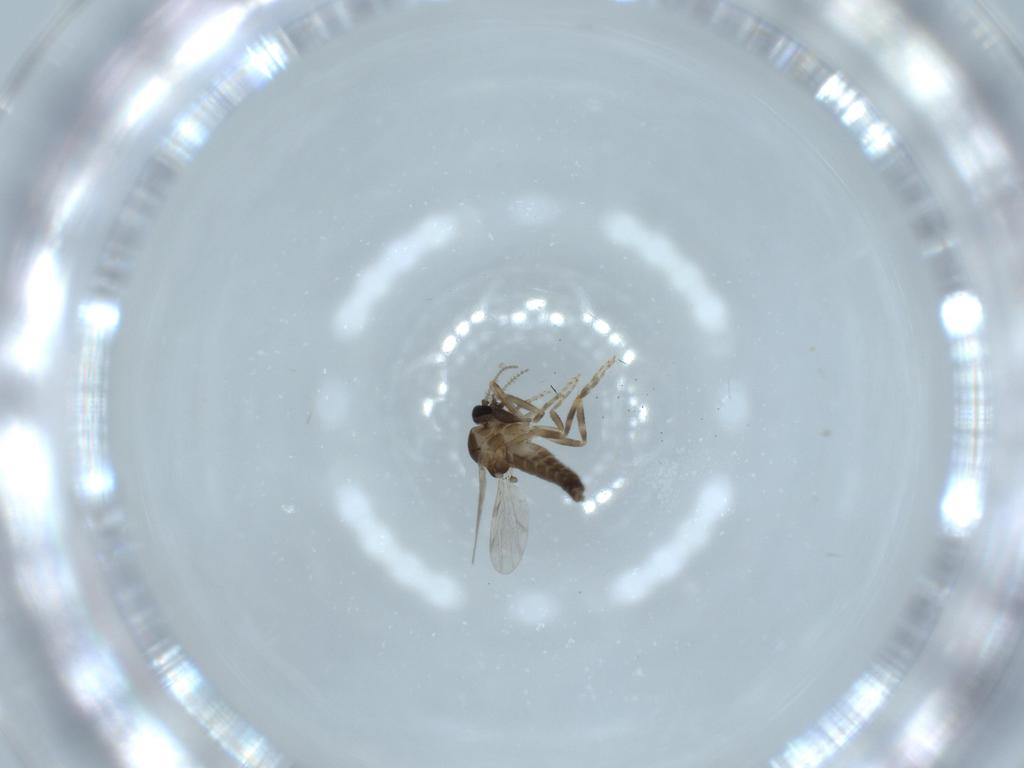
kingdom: Animalia
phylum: Arthropoda
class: Insecta
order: Diptera
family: Ceratopogonidae
